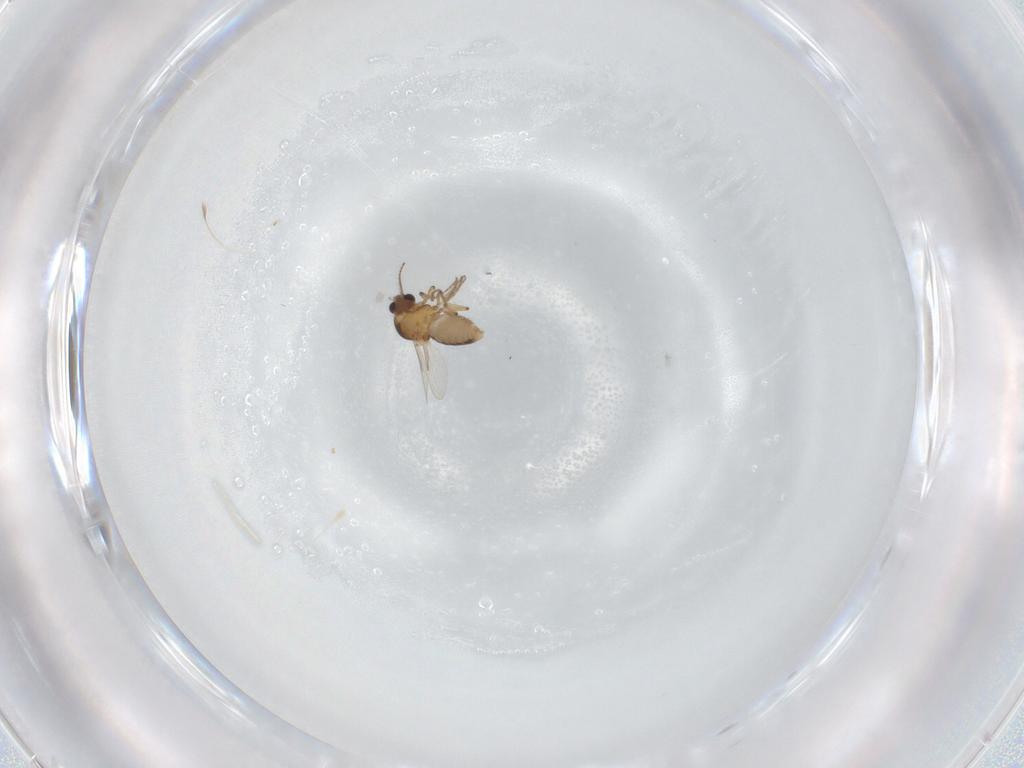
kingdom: Animalia
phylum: Arthropoda
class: Insecta
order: Diptera
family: Ceratopogonidae
